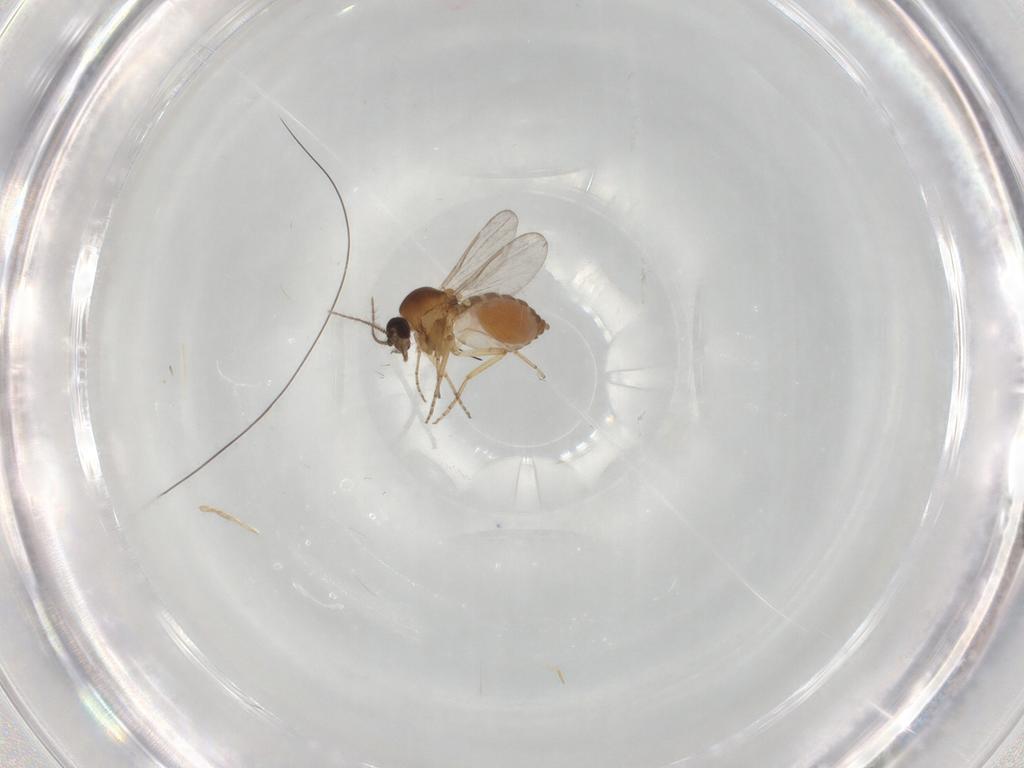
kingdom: Animalia
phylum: Arthropoda
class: Insecta
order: Diptera
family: Ceratopogonidae
